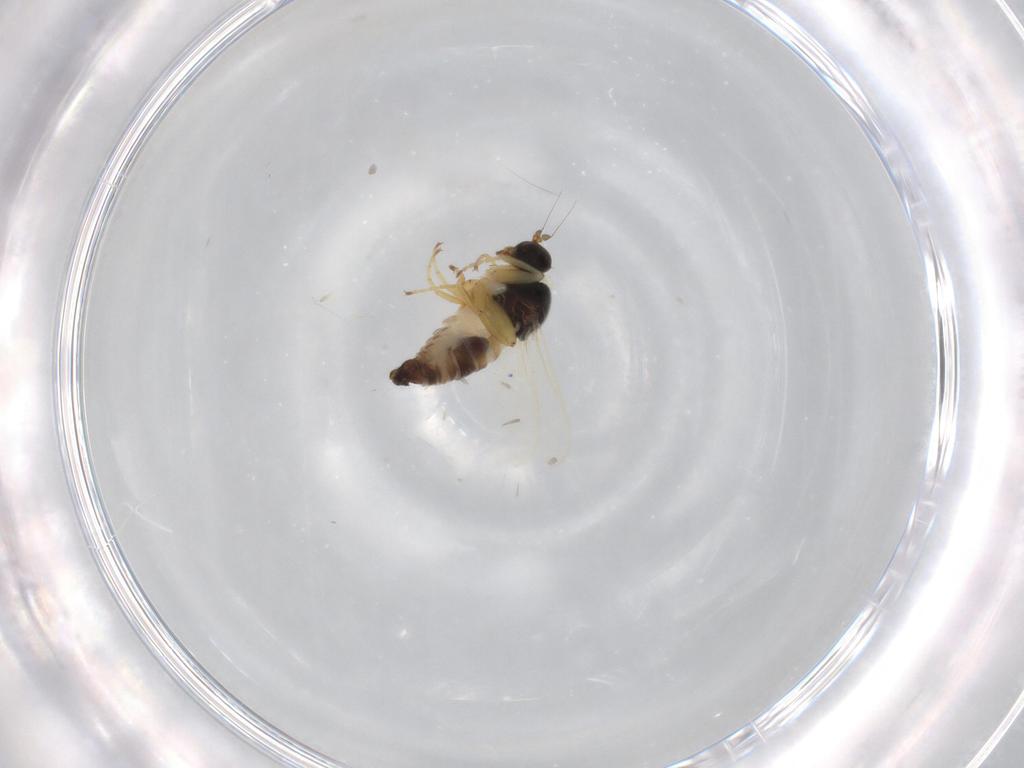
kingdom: Animalia
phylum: Arthropoda
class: Insecta
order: Diptera
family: Hybotidae
